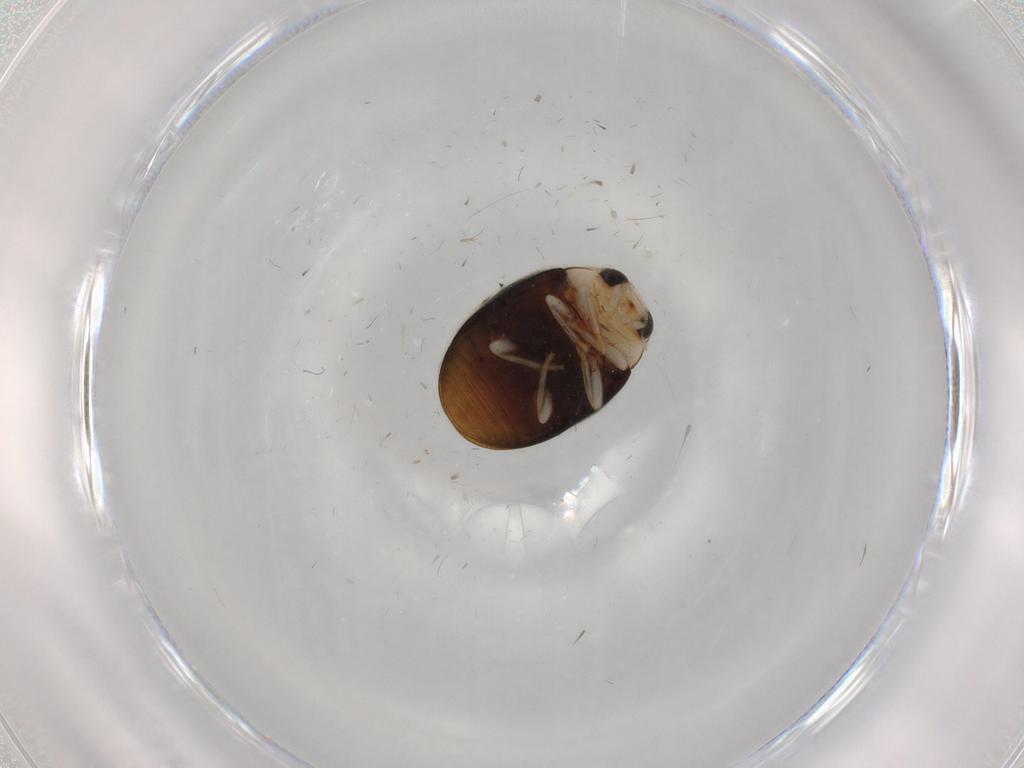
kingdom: Animalia
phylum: Arthropoda
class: Insecta
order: Coleoptera
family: Coccinellidae
